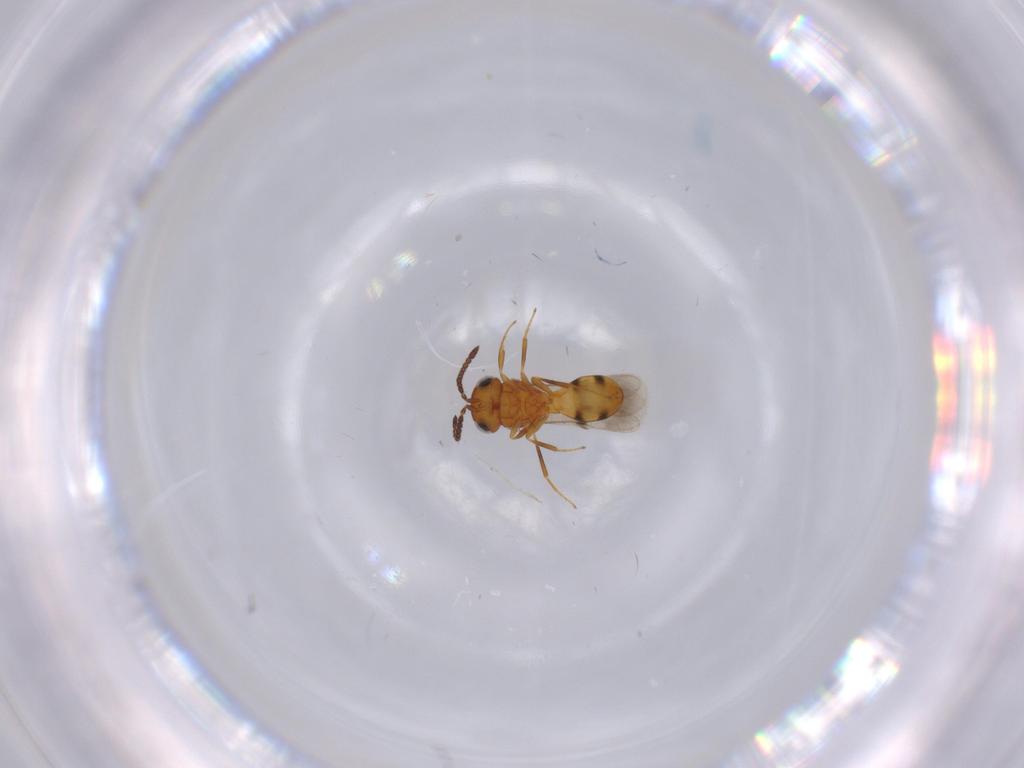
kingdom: Animalia
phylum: Arthropoda
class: Insecta
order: Hymenoptera
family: Scelionidae
